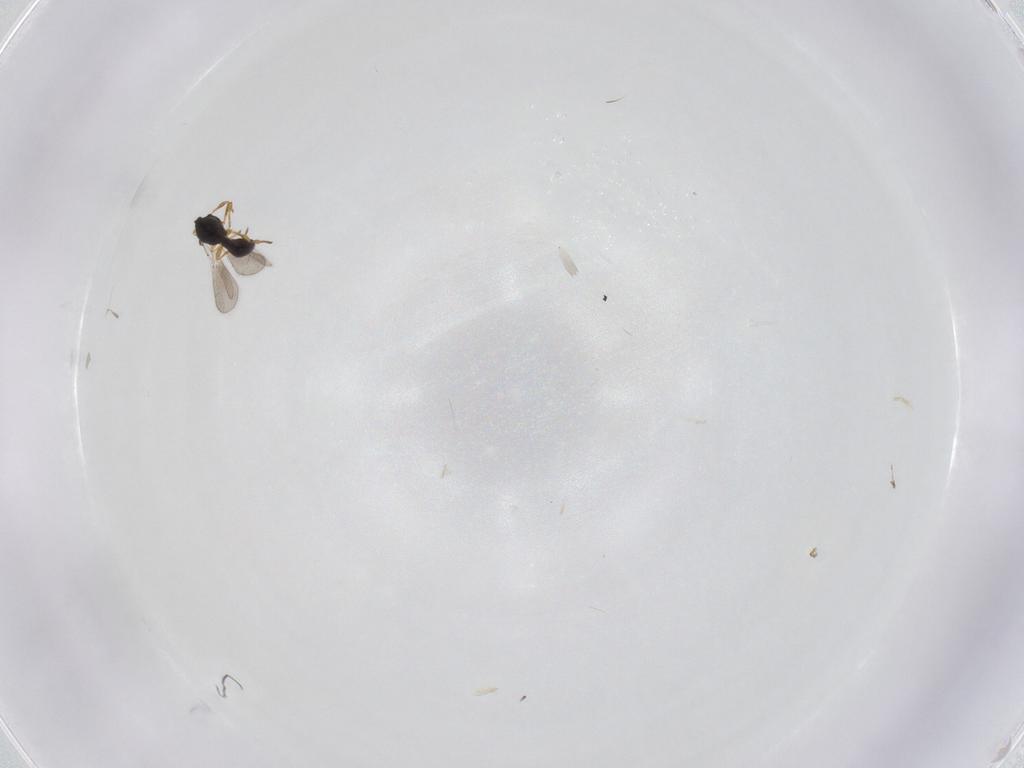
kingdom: Animalia
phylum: Arthropoda
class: Insecta
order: Hymenoptera
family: Platygastridae
